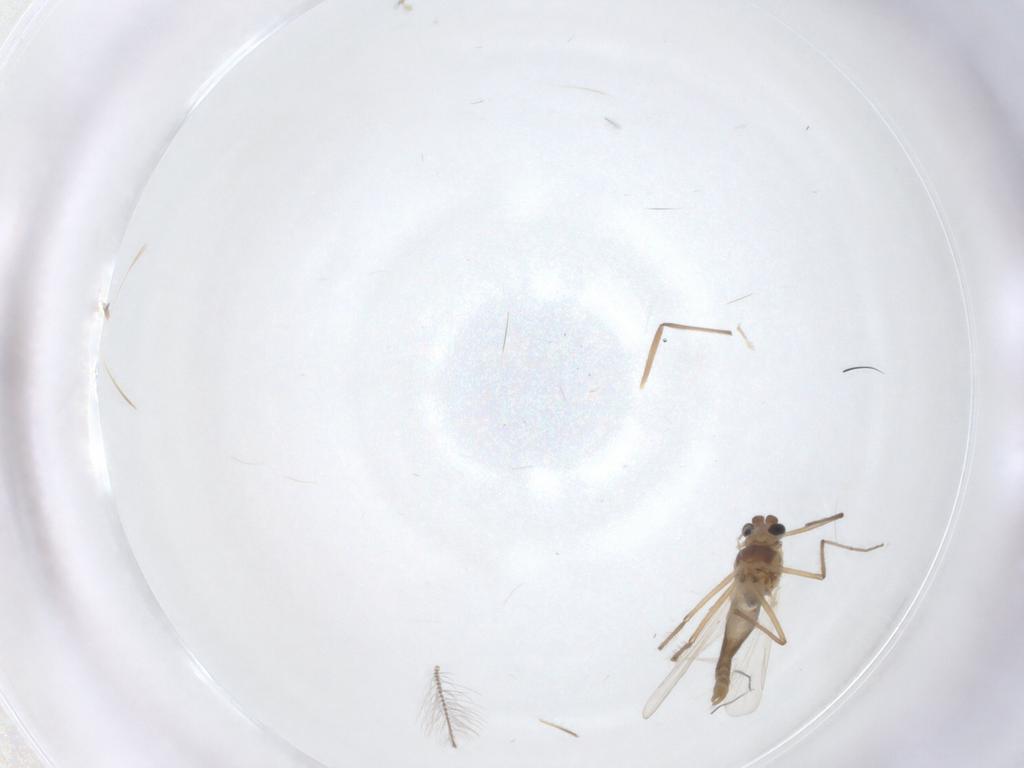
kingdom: Animalia
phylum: Arthropoda
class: Insecta
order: Diptera
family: Chironomidae
